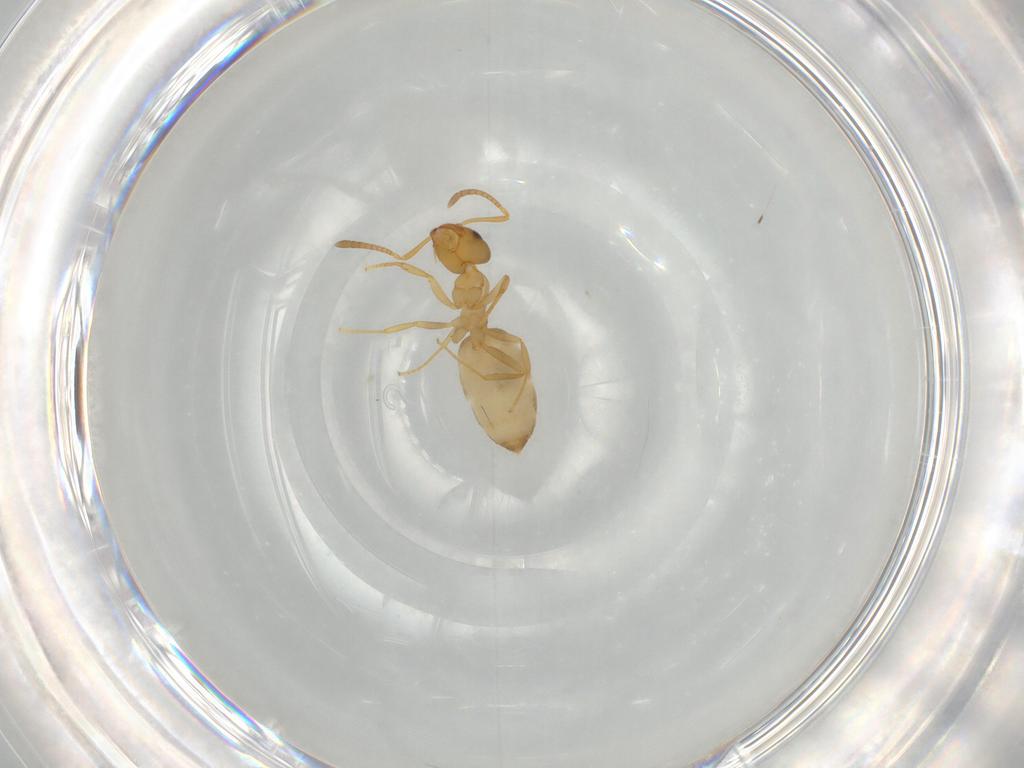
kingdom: Animalia
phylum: Arthropoda
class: Insecta
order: Hymenoptera
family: Formicidae
